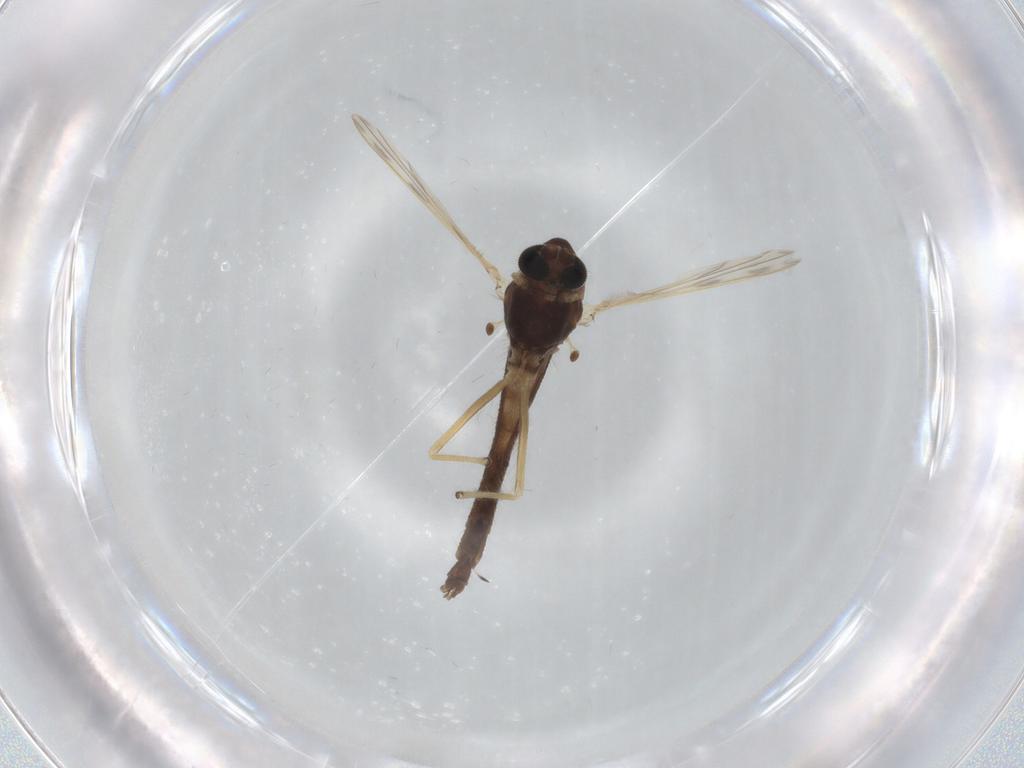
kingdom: Animalia
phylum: Arthropoda
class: Insecta
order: Diptera
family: Chironomidae
